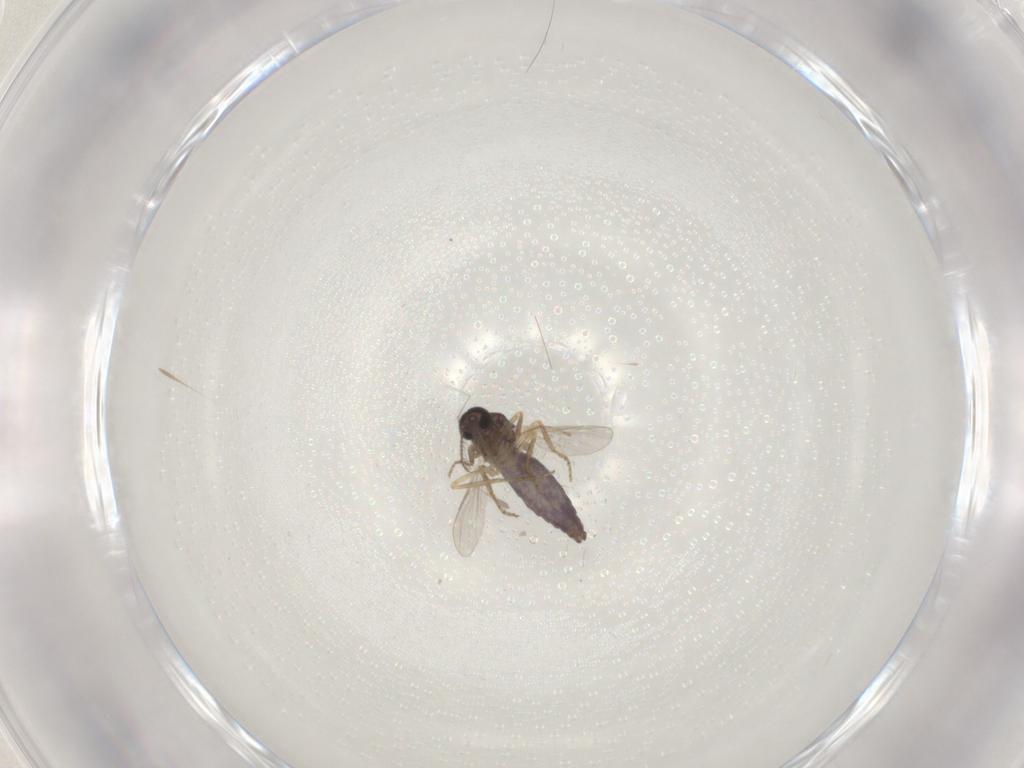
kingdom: Animalia
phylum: Arthropoda
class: Insecta
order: Diptera
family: Ceratopogonidae
